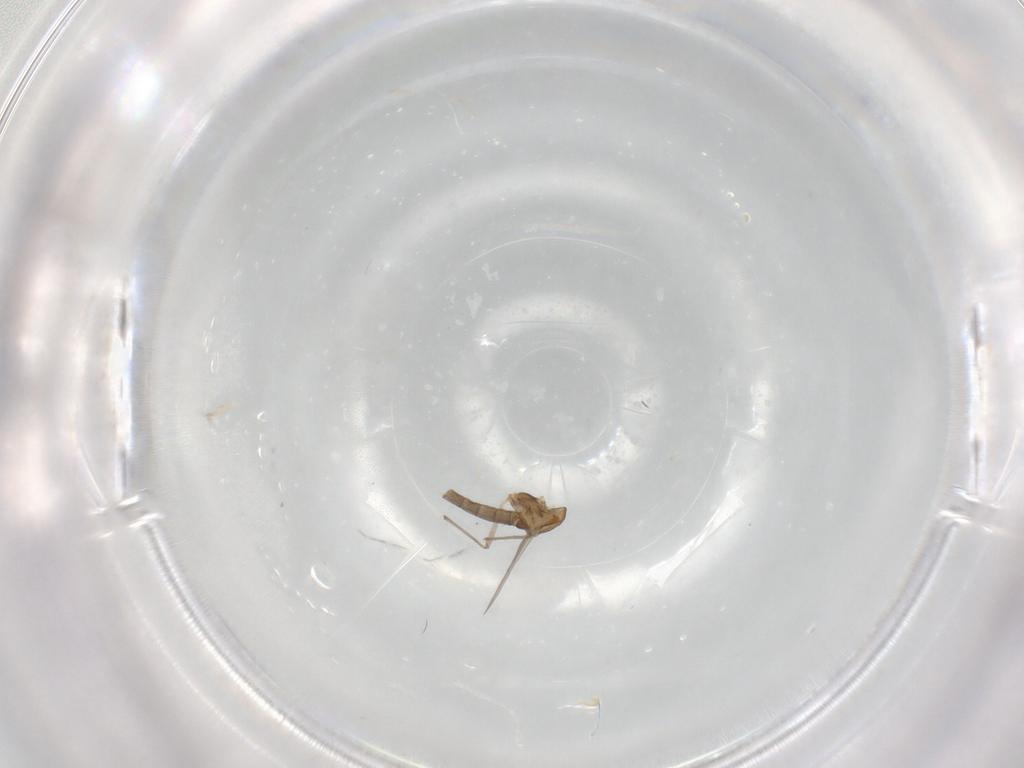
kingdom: Animalia
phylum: Arthropoda
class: Insecta
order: Diptera
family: Chironomidae
